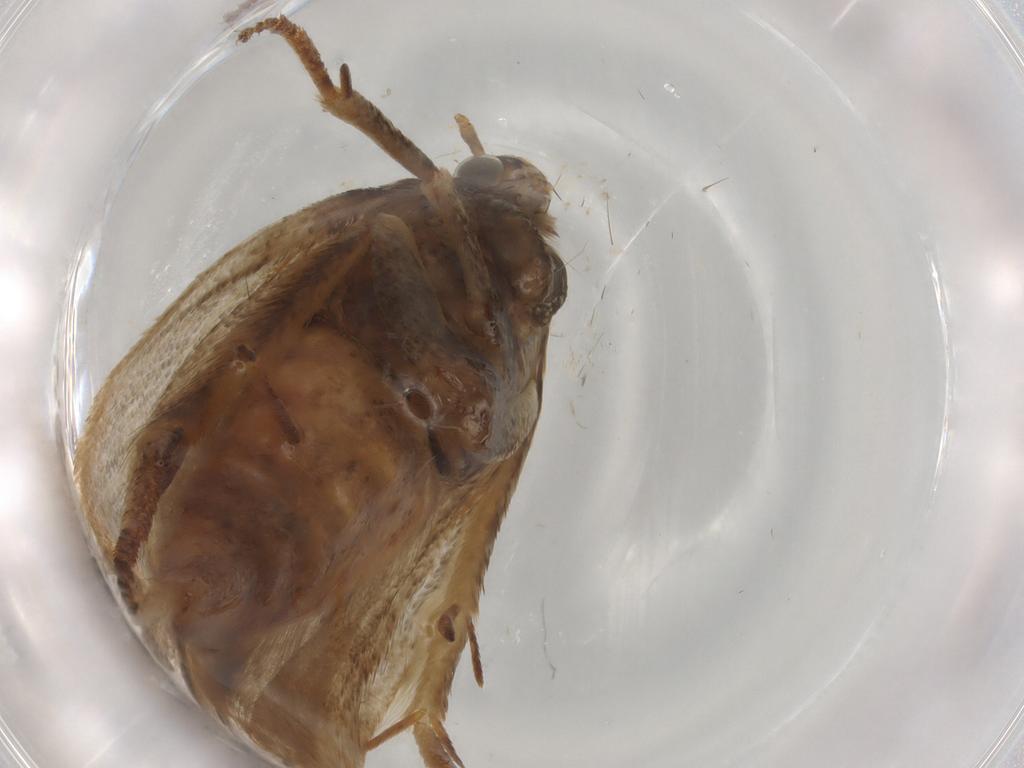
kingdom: Animalia
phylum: Arthropoda
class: Insecta
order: Lepidoptera
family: Erebidae
